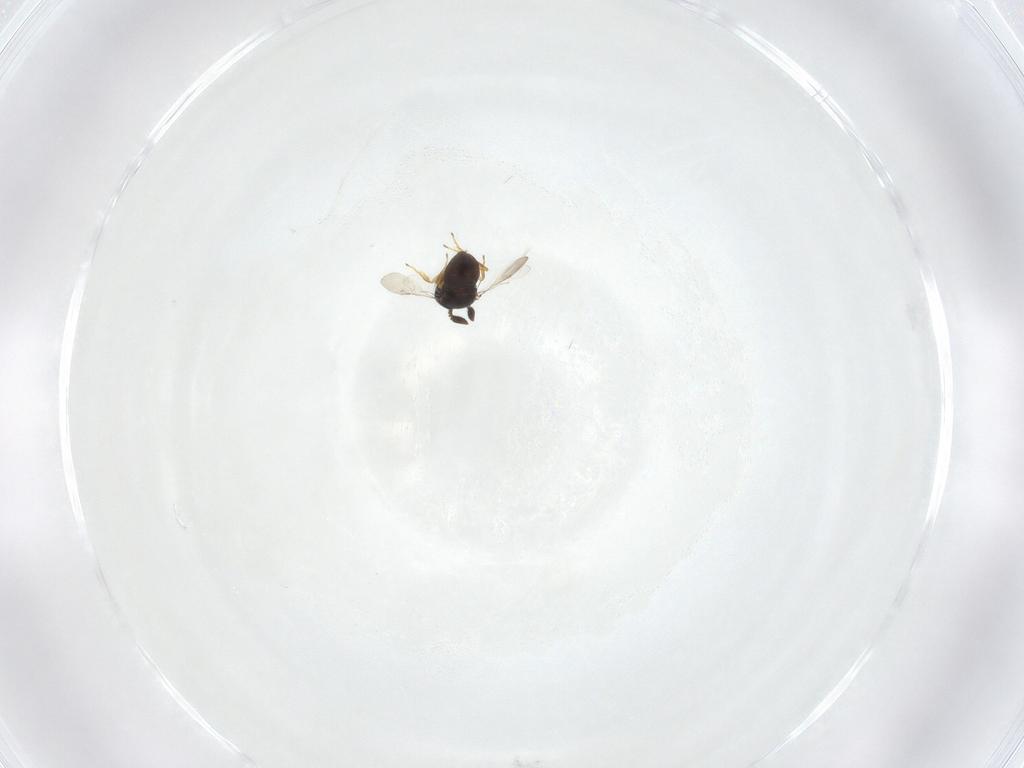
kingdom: Animalia
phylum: Arthropoda
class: Insecta
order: Hymenoptera
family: Scelionidae
